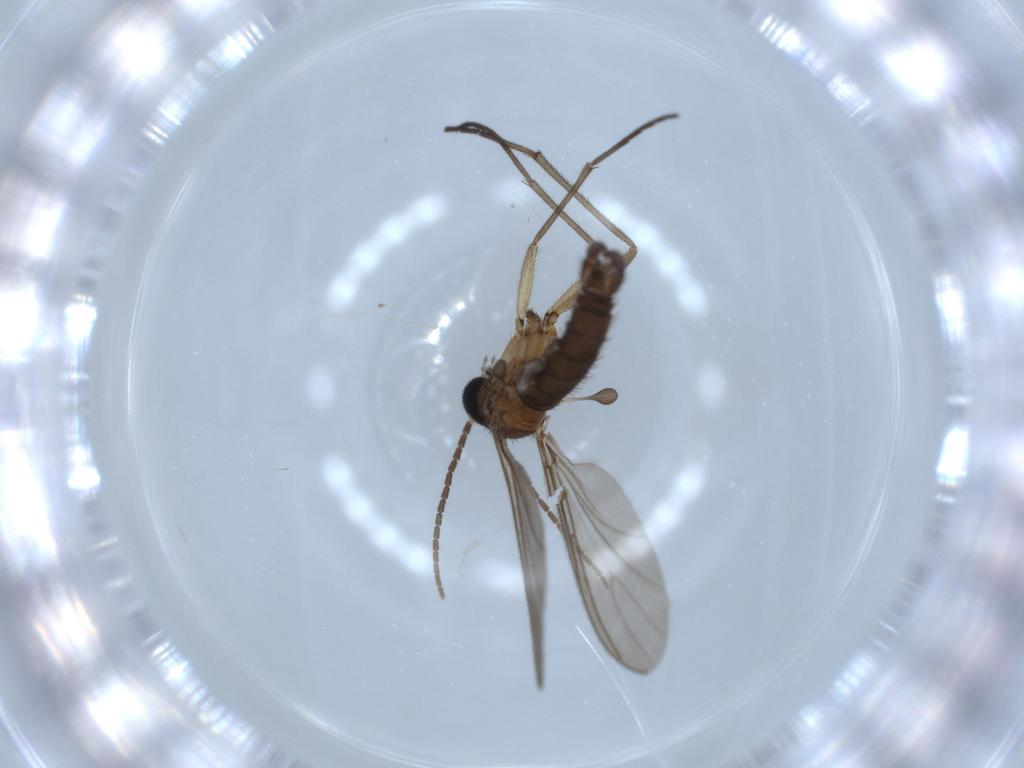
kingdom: Animalia
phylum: Arthropoda
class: Insecta
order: Diptera
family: Sciaridae
